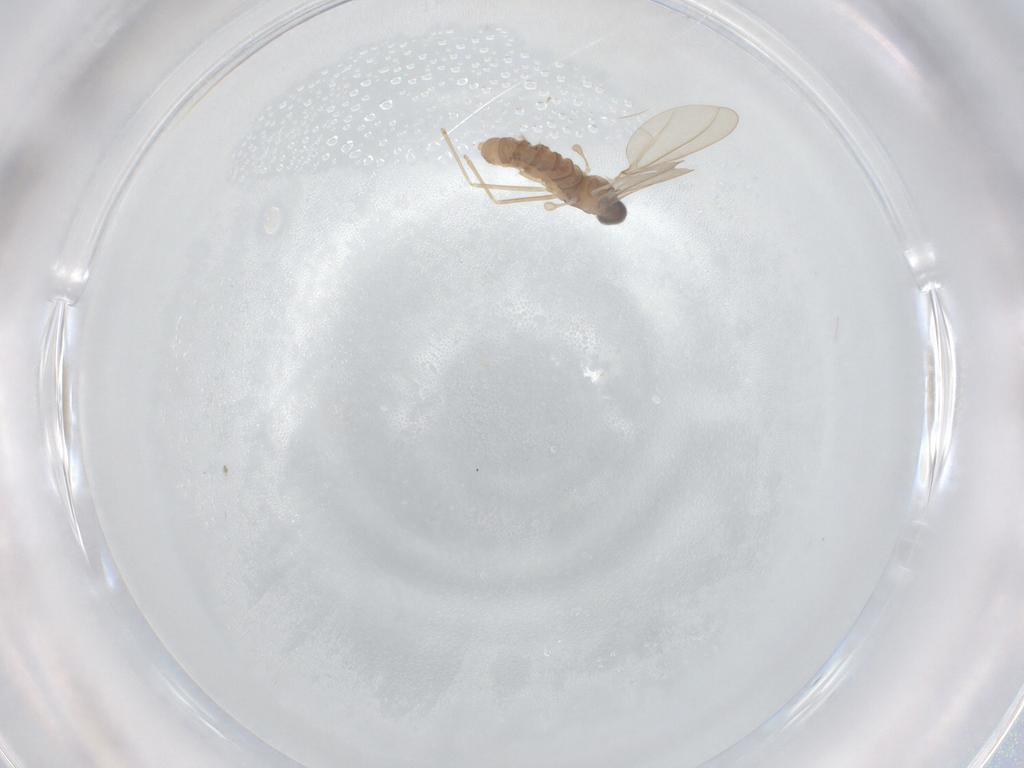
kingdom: Animalia
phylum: Arthropoda
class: Insecta
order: Diptera
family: Cecidomyiidae
